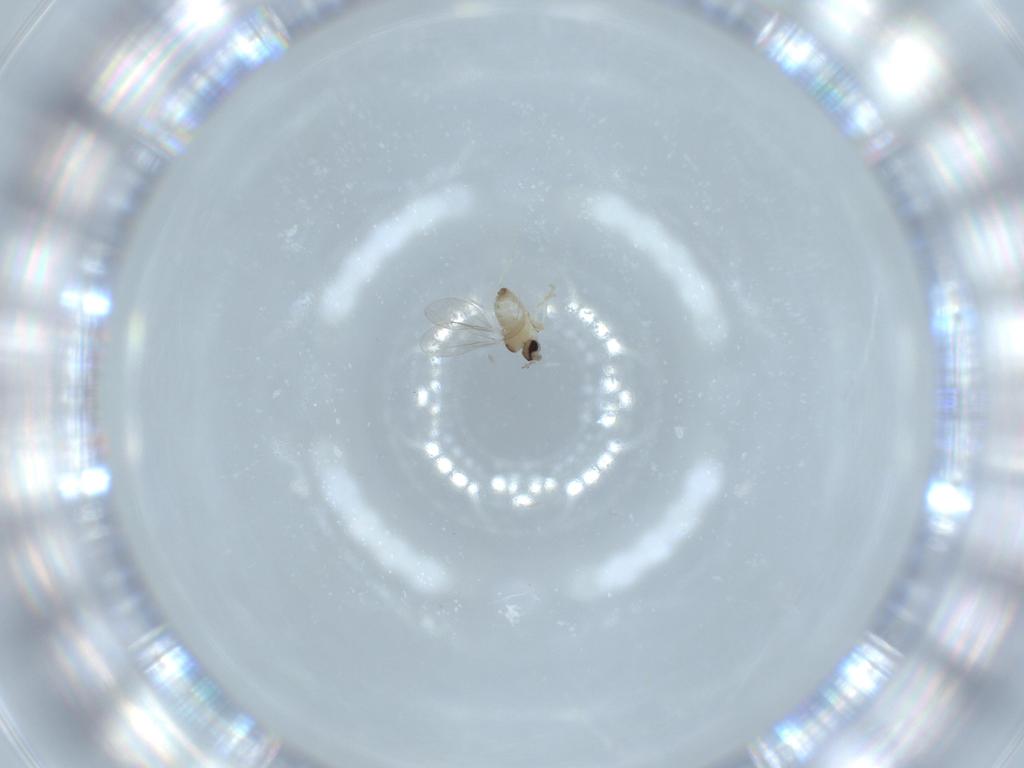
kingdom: Animalia
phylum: Arthropoda
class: Insecta
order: Diptera
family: Cecidomyiidae
